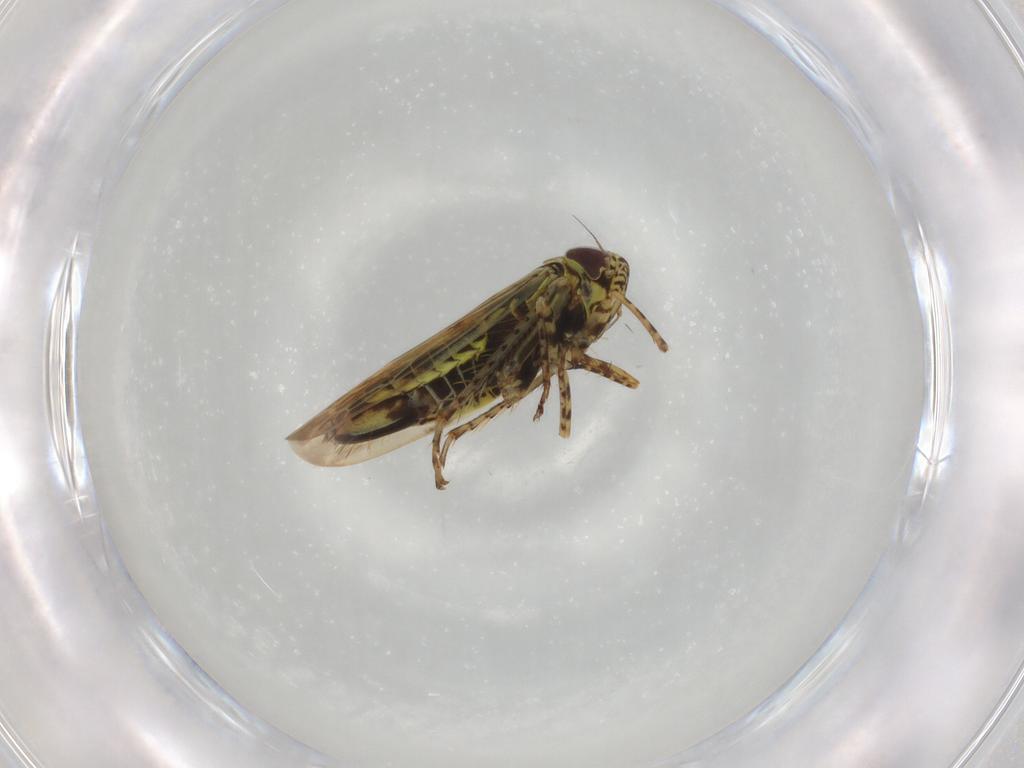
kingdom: Animalia
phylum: Arthropoda
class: Insecta
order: Hemiptera
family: Cicadellidae
